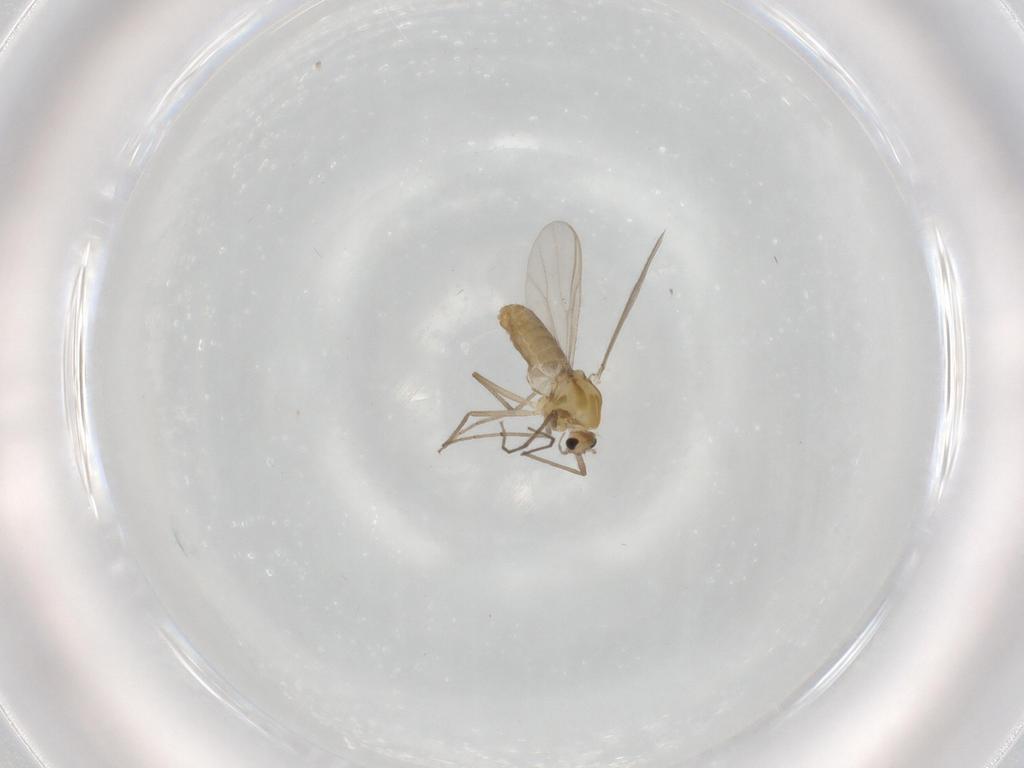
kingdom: Animalia
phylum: Arthropoda
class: Insecta
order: Diptera
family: Chironomidae
